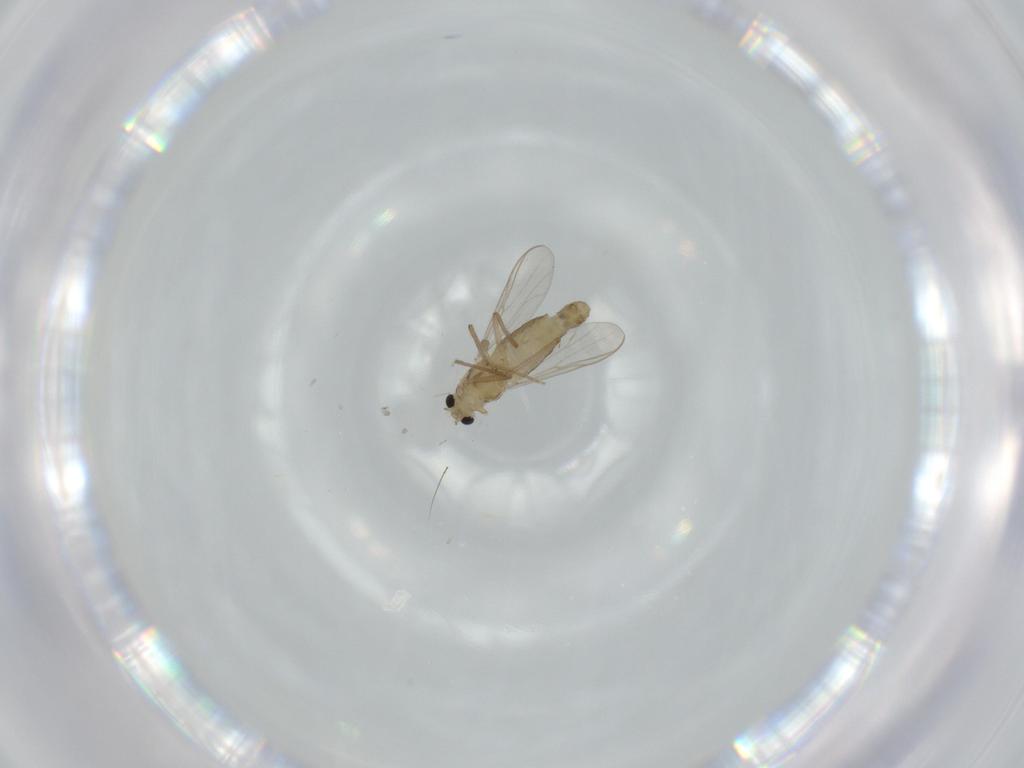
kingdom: Animalia
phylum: Arthropoda
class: Insecta
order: Diptera
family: Chironomidae
